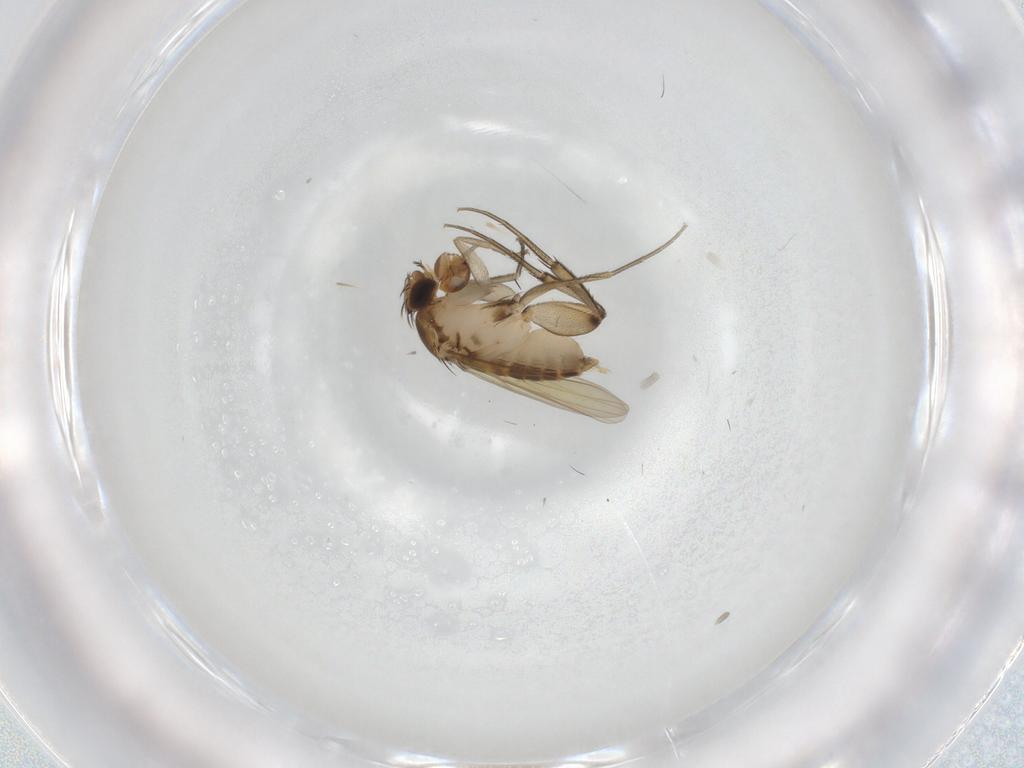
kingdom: Animalia
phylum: Arthropoda
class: Insecta
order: Diptera
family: Phoridae
